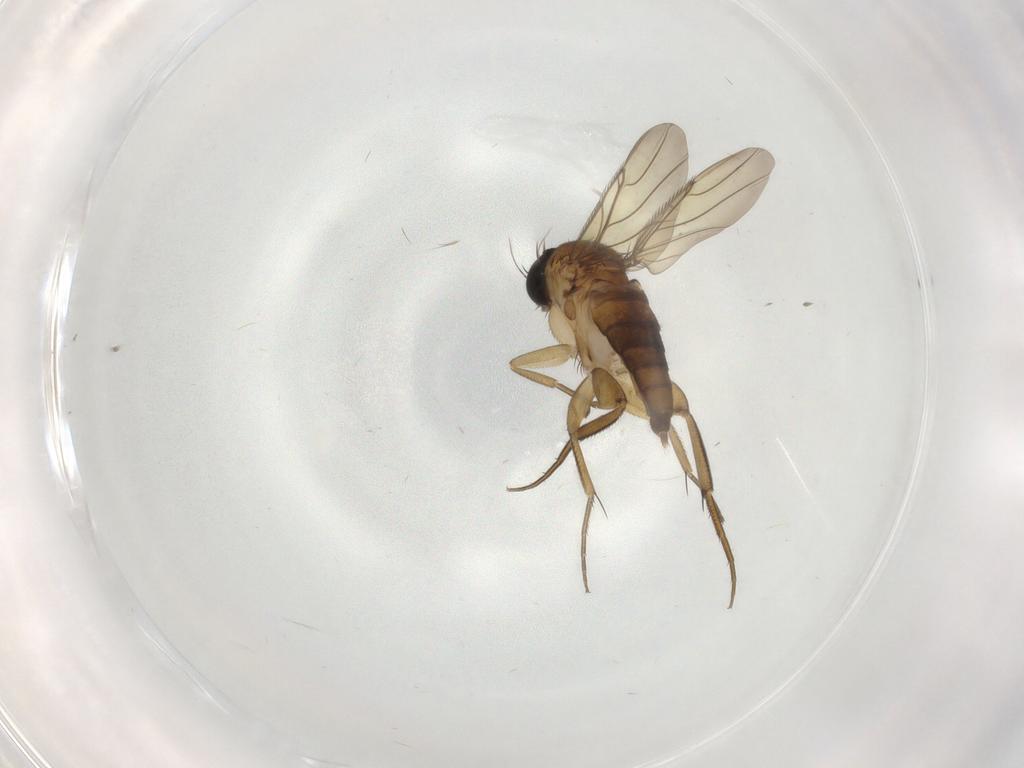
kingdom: Animalia
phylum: Arthropoda
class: Insecta
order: Diptera
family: Phoridae
